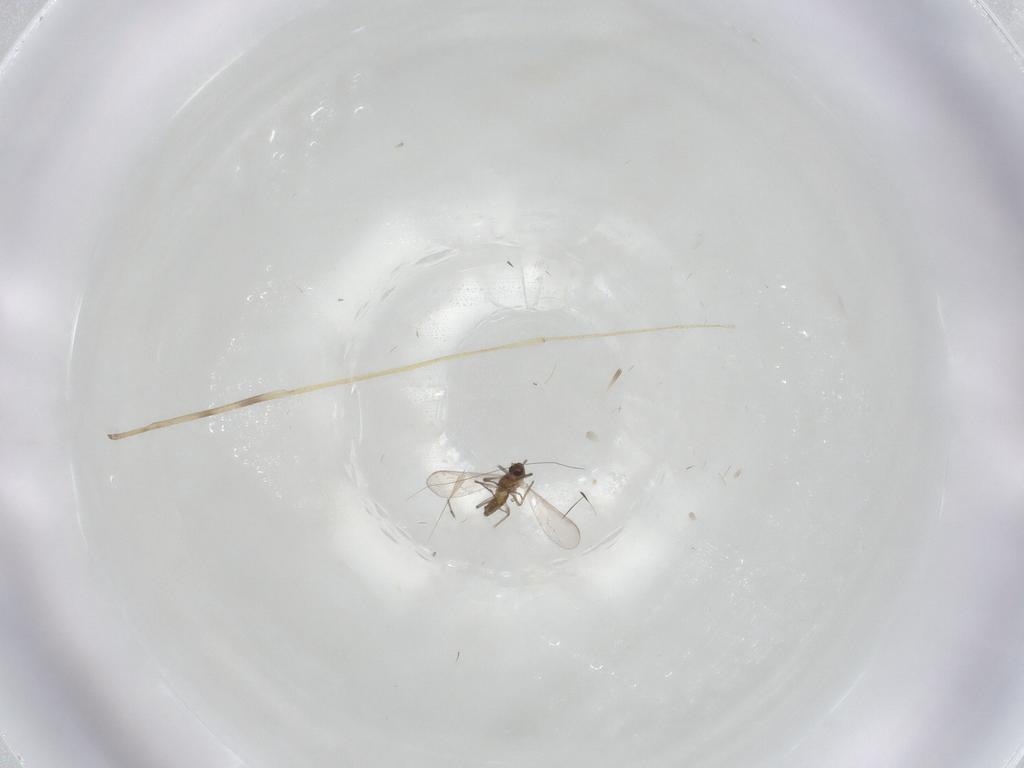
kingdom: Animalia
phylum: Arthropoda
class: Insecta
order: Diptera
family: Chironomidae
